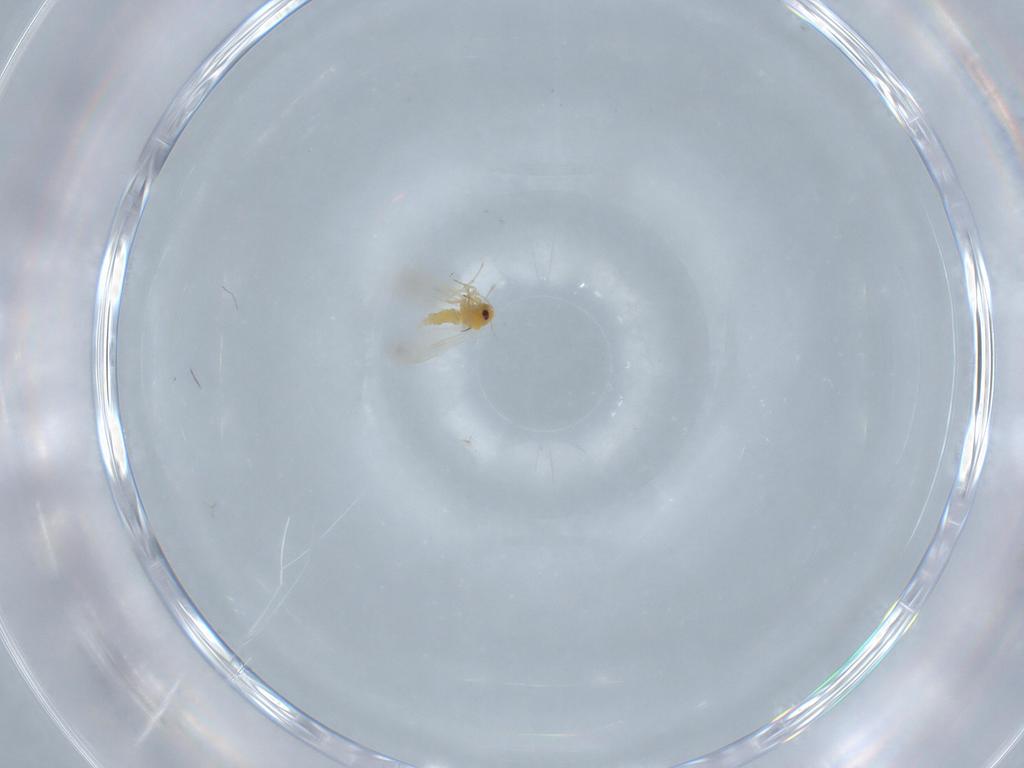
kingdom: Animalia
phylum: Arthropoda
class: Insecta
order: Hemiptera
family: Aleyrodidae
